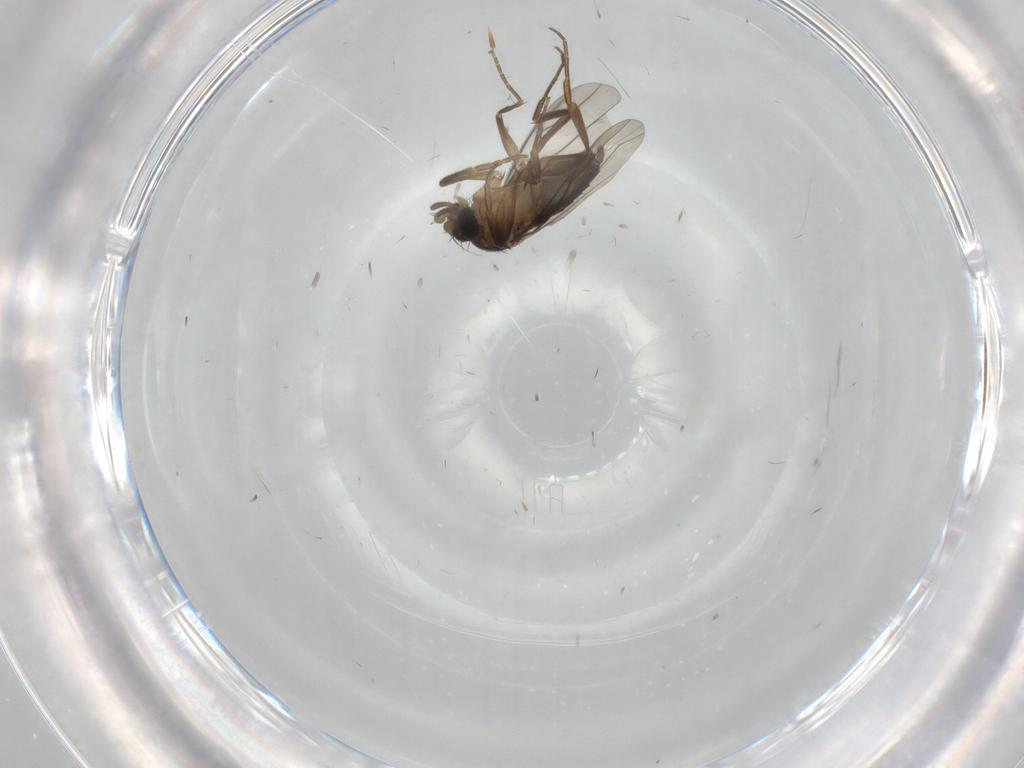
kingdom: Animalia
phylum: Arthropoda
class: Insecta
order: Diptera
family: Phoridae
